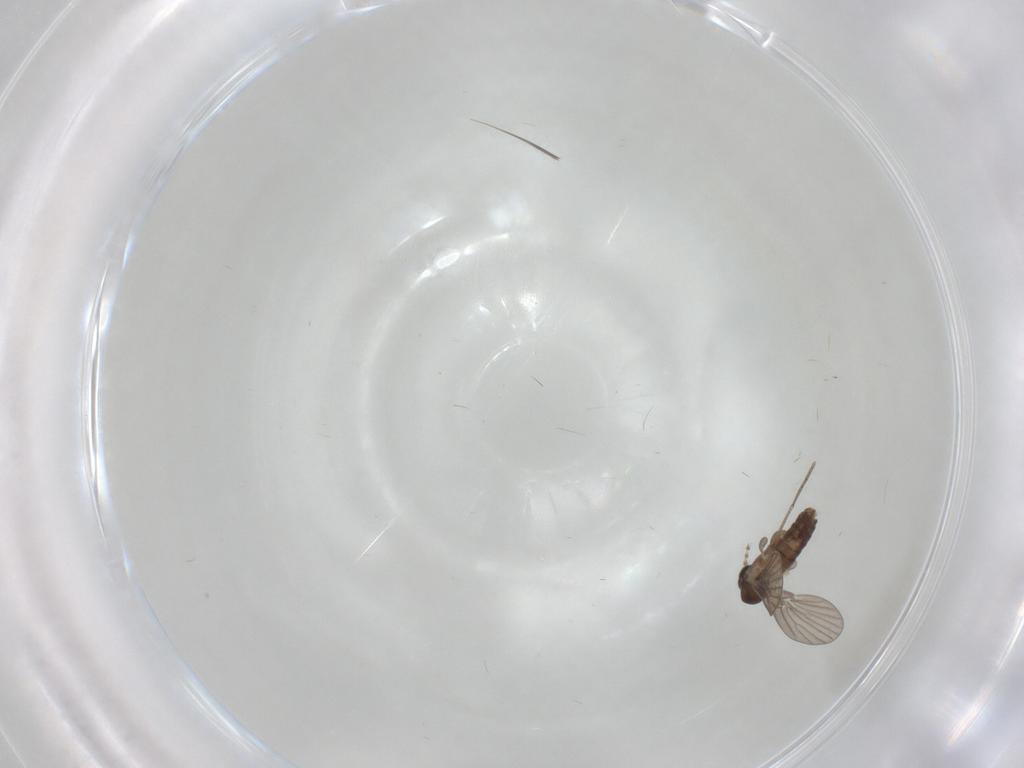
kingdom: Animalia
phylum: Arthropoda
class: Insecta
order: Diptera
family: Psychodidae
